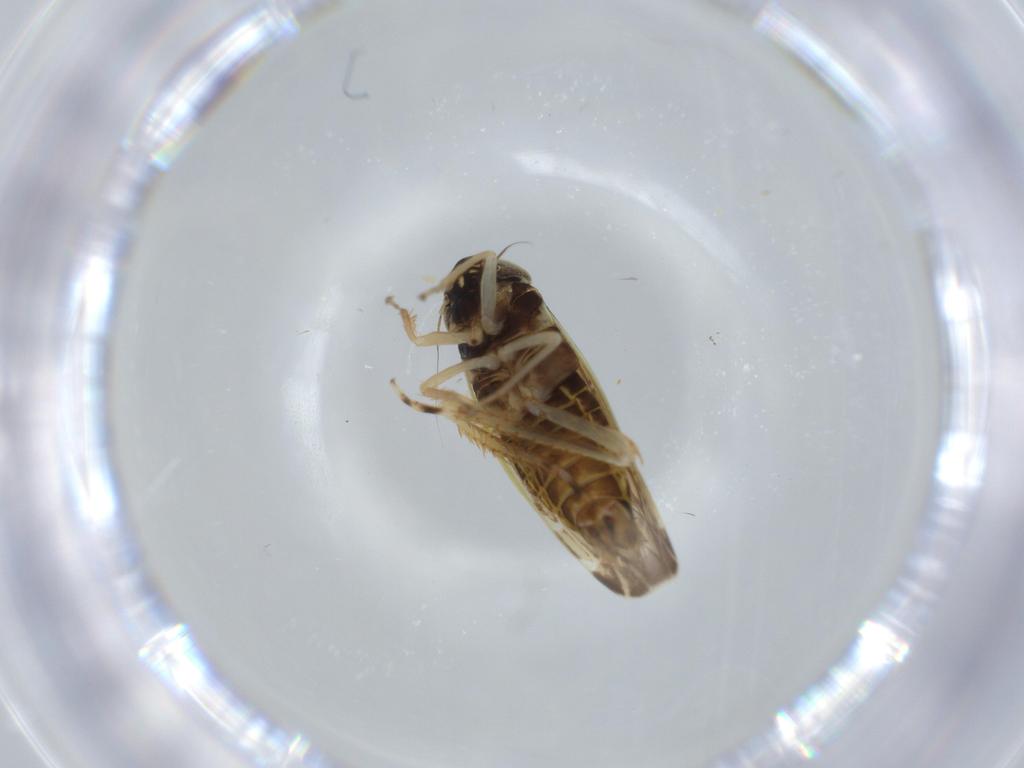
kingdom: Animalia
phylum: Arthropoda
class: Insecta
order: Hemiptera
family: Cicadellidae
